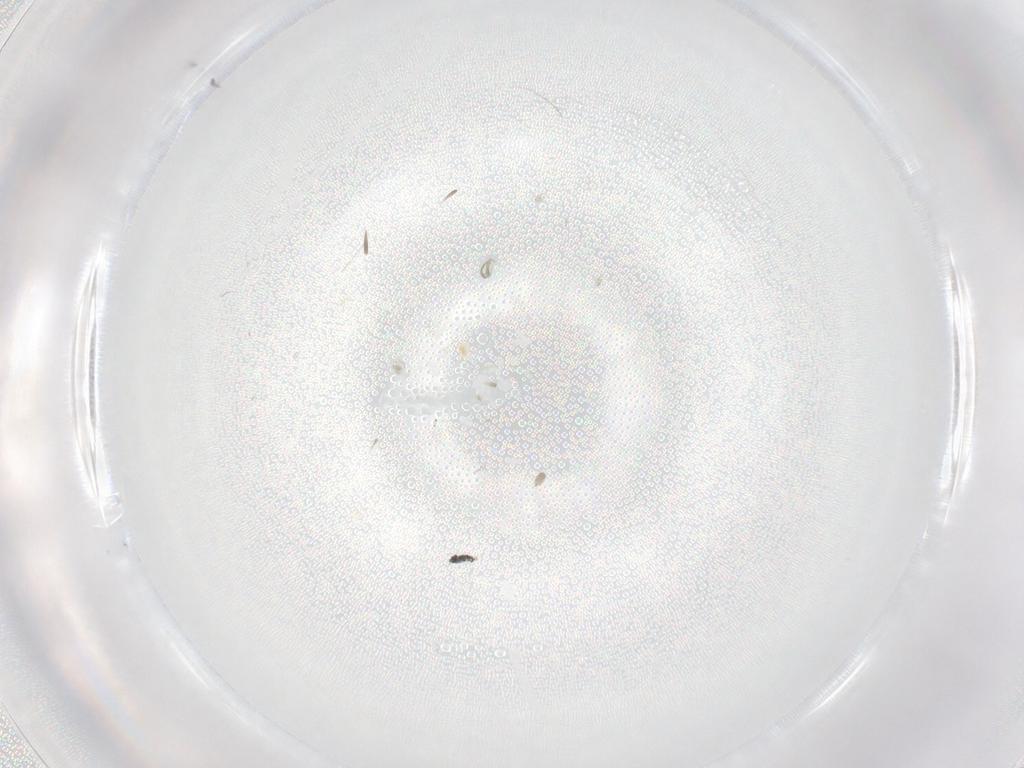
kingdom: Animalia
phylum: Arthropoda
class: Insecta
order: Diptera
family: Cecidomyiidae
